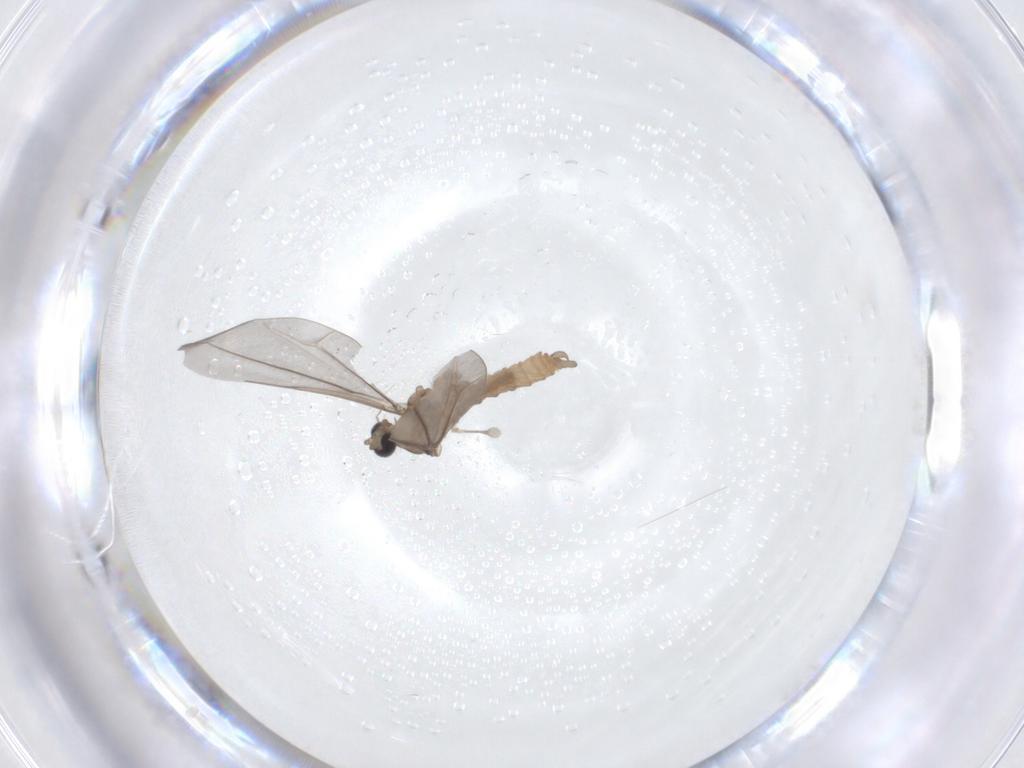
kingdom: Animalia
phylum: Arthropoda
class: Insecta
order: Diptera
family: Cecidomyiidae
